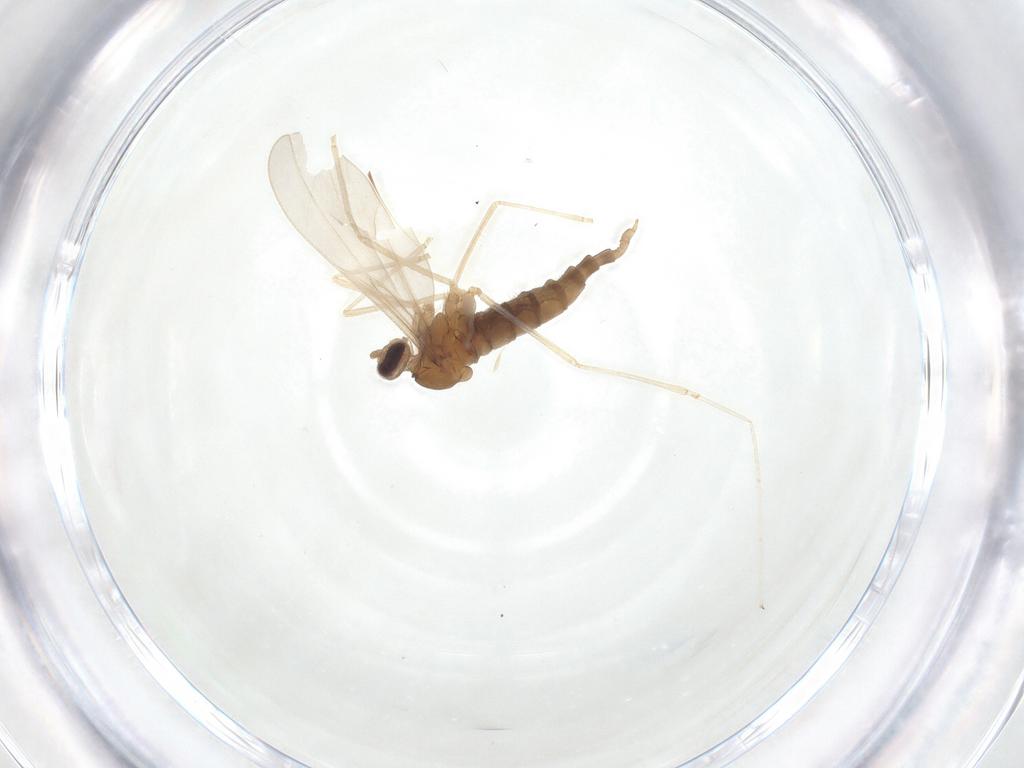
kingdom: Animalia
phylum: Arthropoda
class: Insecta
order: Diptera
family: Cecidomyiidae
